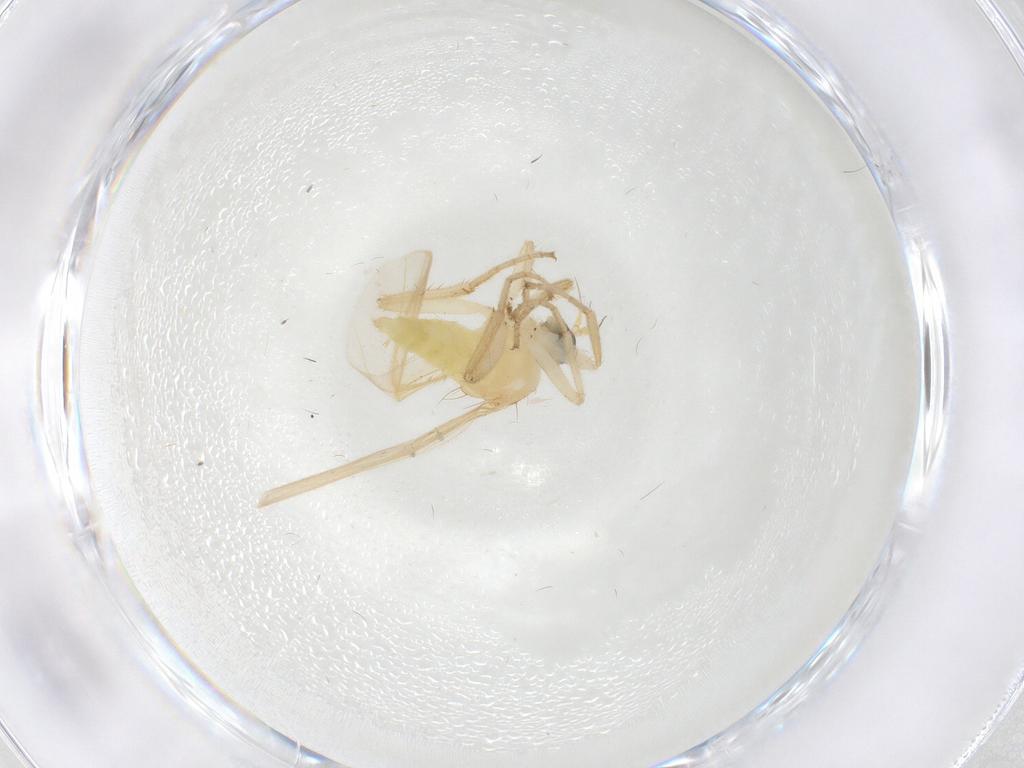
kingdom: Animalia
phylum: Arthropoda
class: Insecta
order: Diptera
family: Hybotidae
